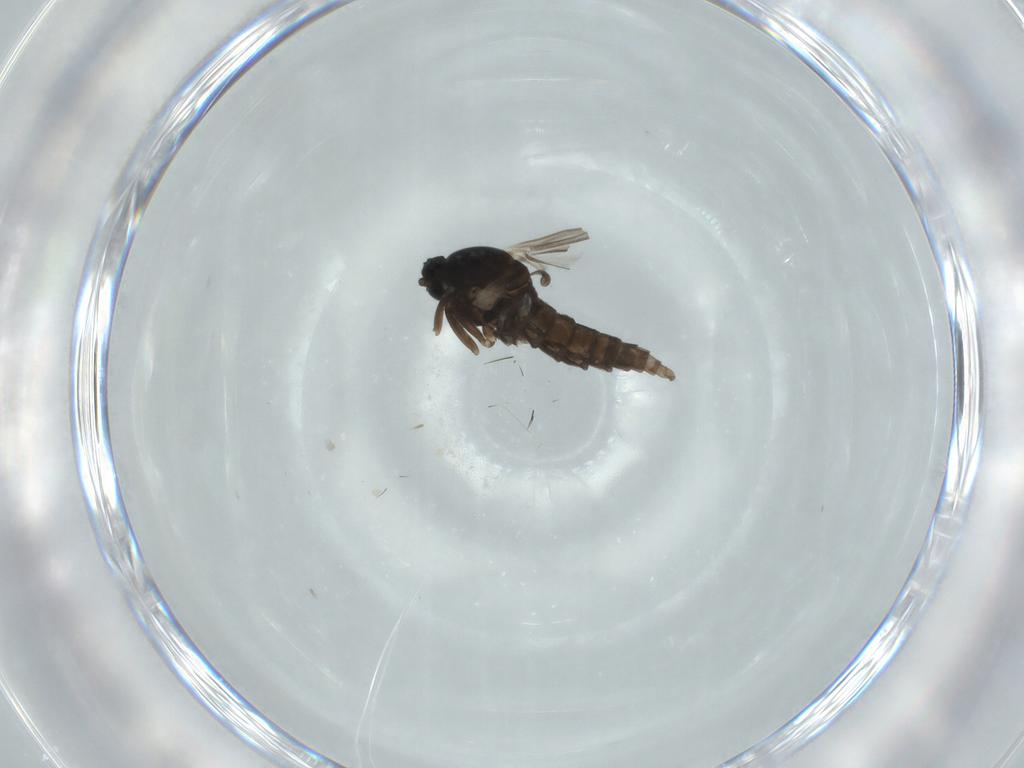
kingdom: Animalia
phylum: Arthropoda
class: Insecta
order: Diptera
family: Cecidomyiidae
